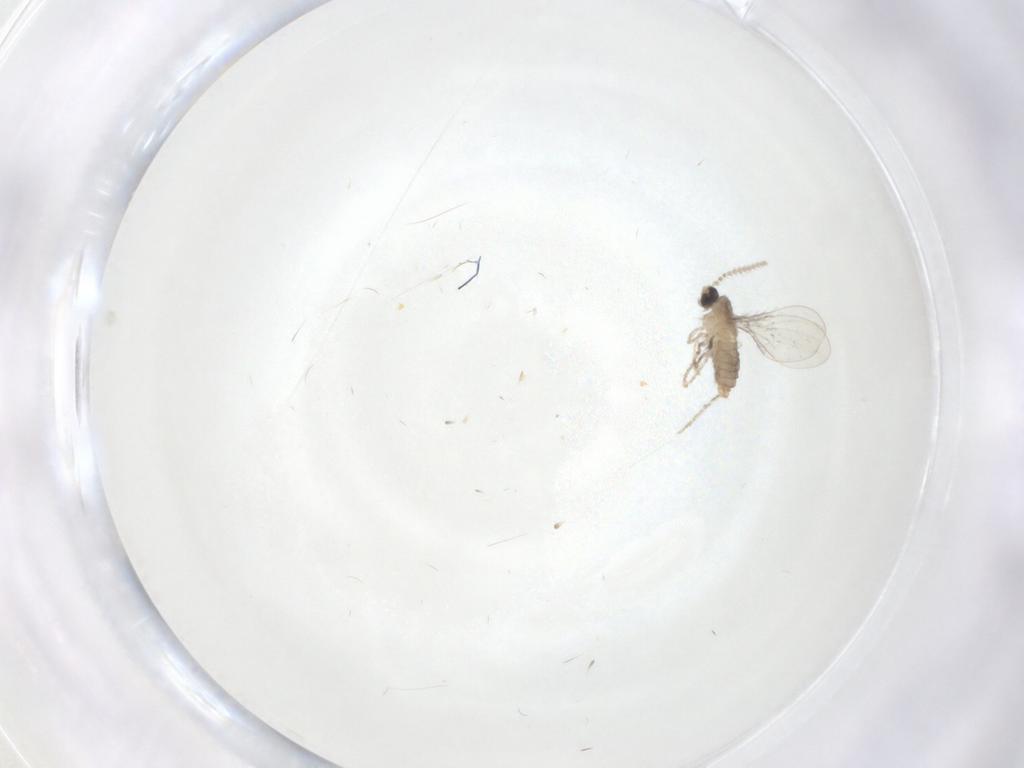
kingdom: Animalia
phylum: Arthropoda
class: Insecta
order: Diptera
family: Cecidomyiidae
